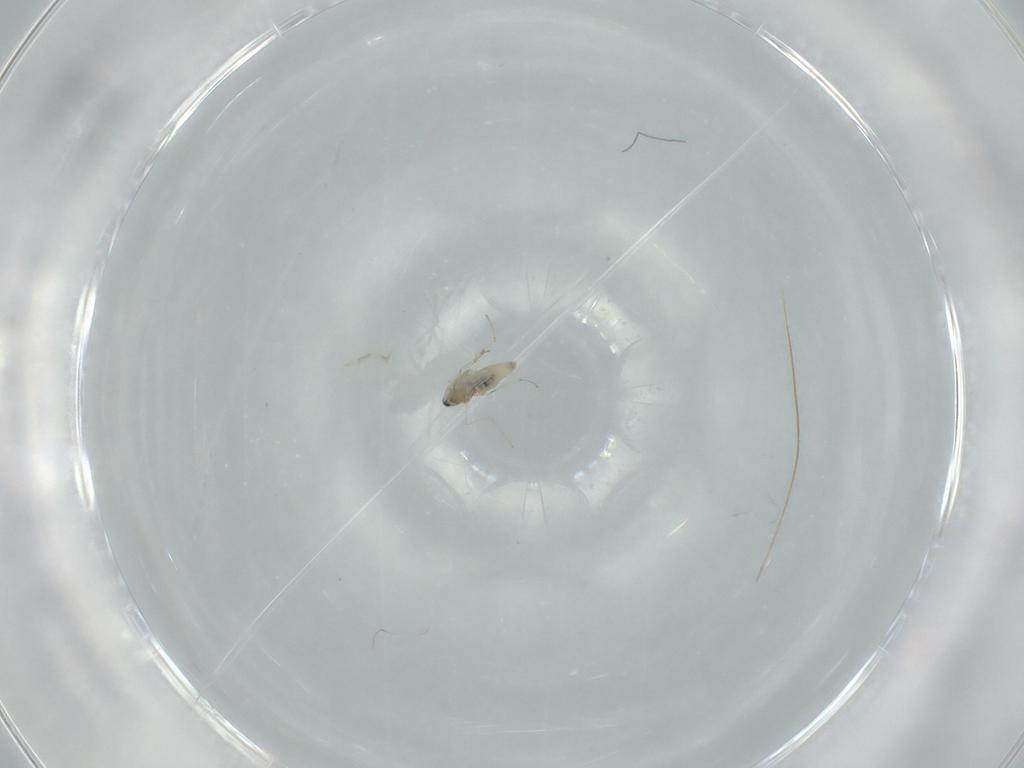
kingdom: Animalia
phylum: Arthropoda
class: Insecta
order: Diptera
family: Cecidomyiidae
